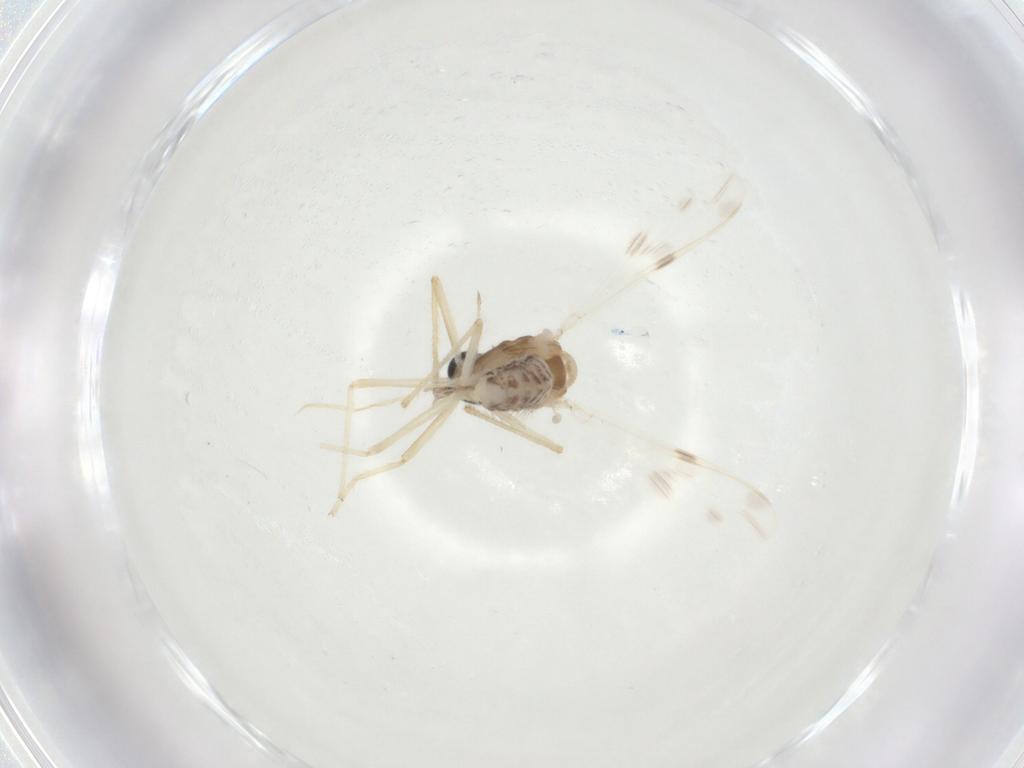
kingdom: Animalia
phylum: Arthropoda
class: Insecta
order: Diptera
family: Chironomidae
